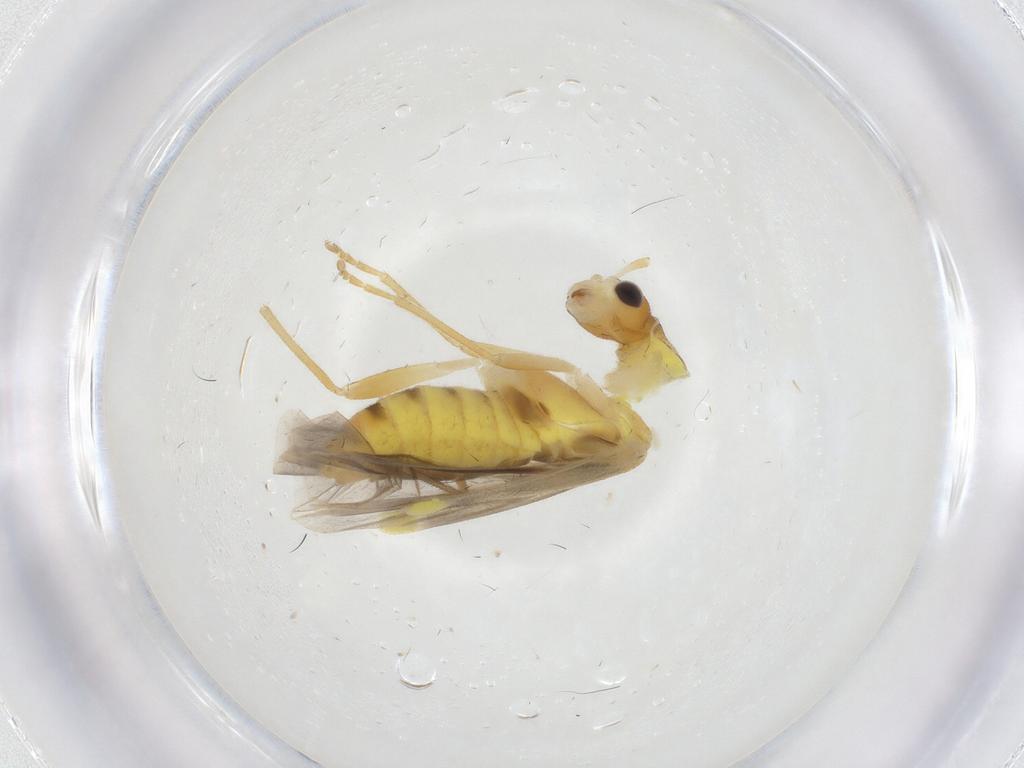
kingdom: Animalia
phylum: Arthropoda
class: Insecta
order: Coleoptera
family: Cantharidae
